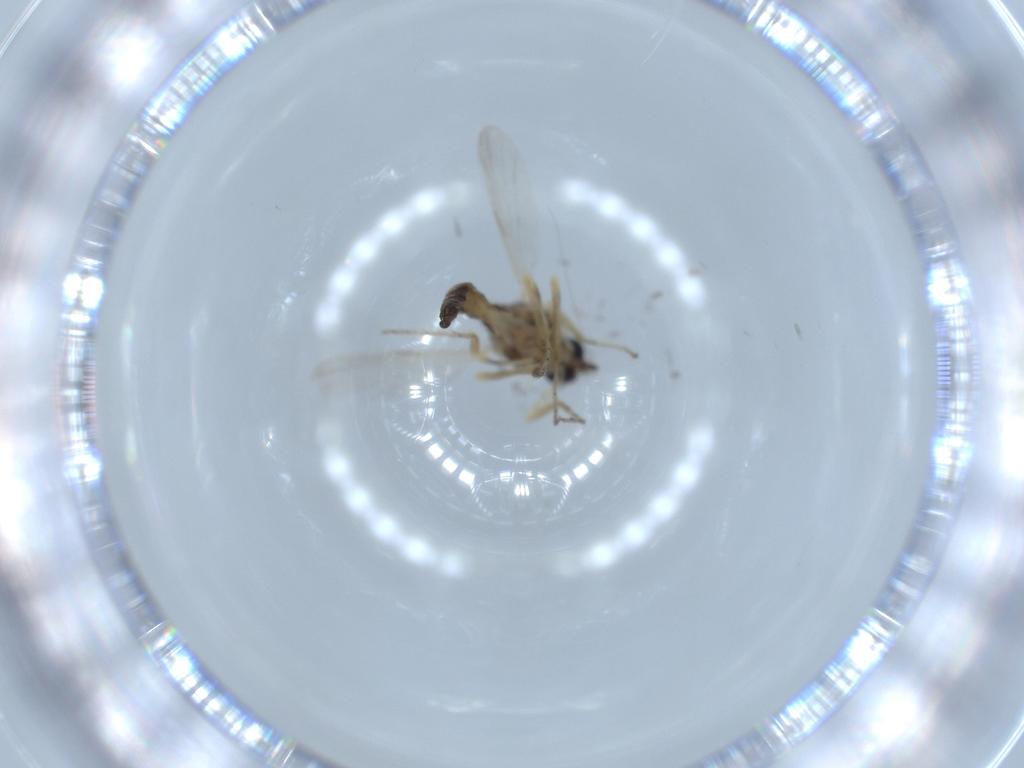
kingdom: Animalia
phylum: Arthropoda
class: Insecta
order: Diptera
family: Ceratopogonidae
